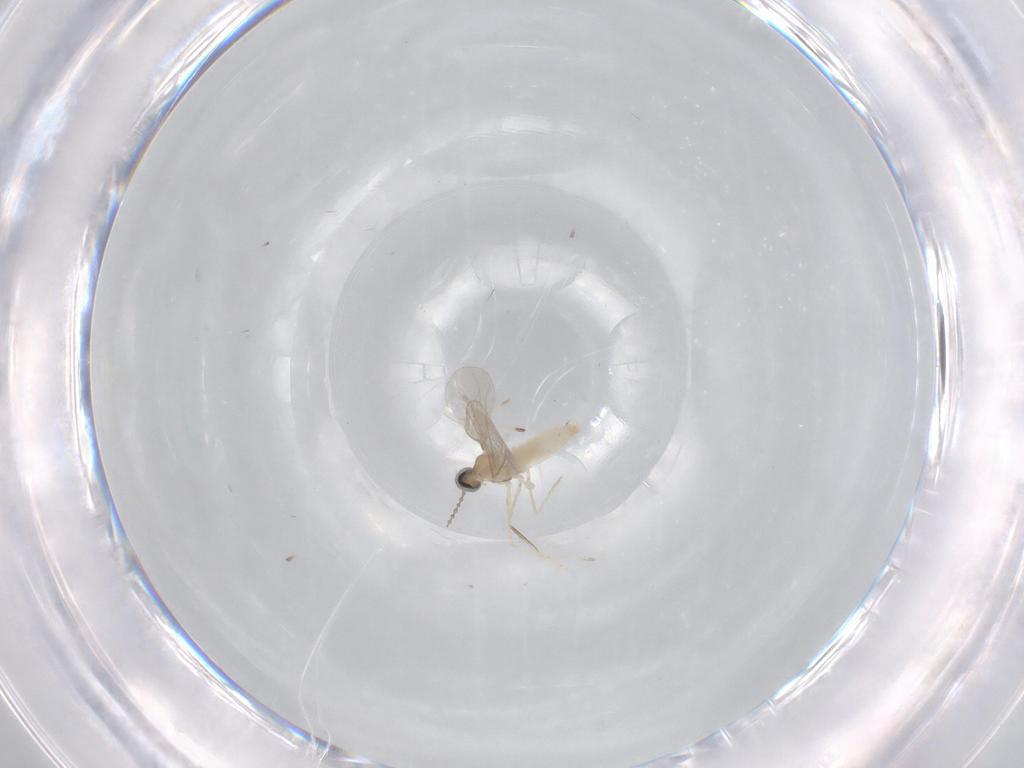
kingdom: Animalia
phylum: Arthropoda
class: Insecta
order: Diptera
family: Cecidomyiidae
